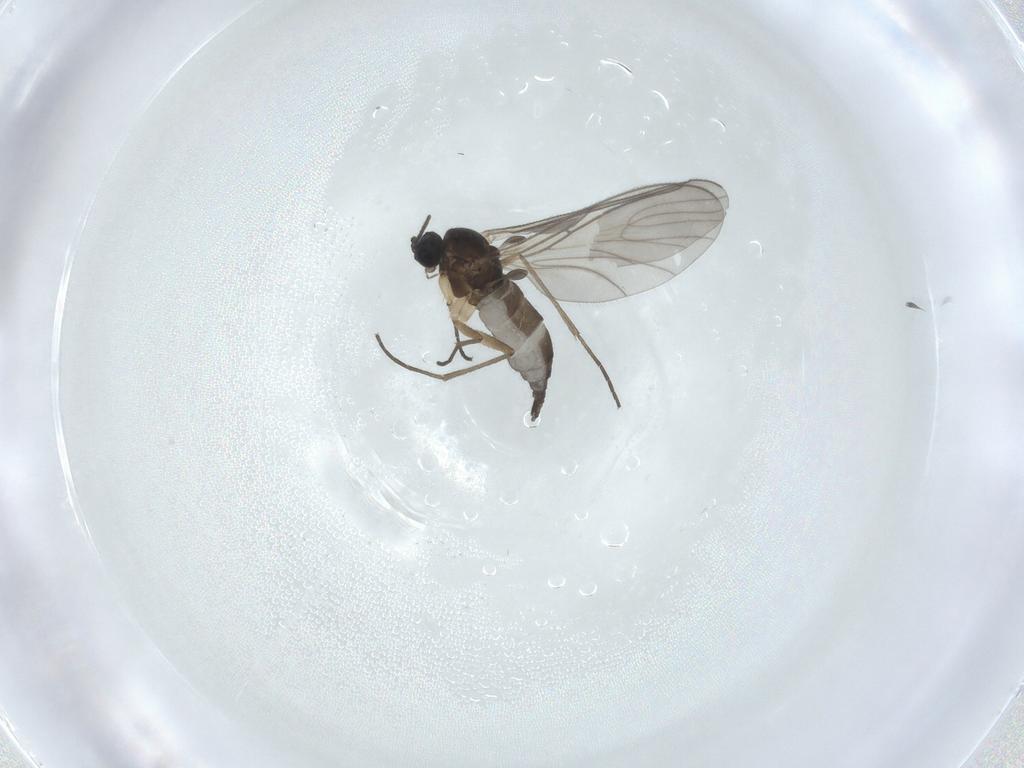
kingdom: Animalia
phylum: Arthropoda
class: Insecta
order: Diptera
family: Sciaridae
